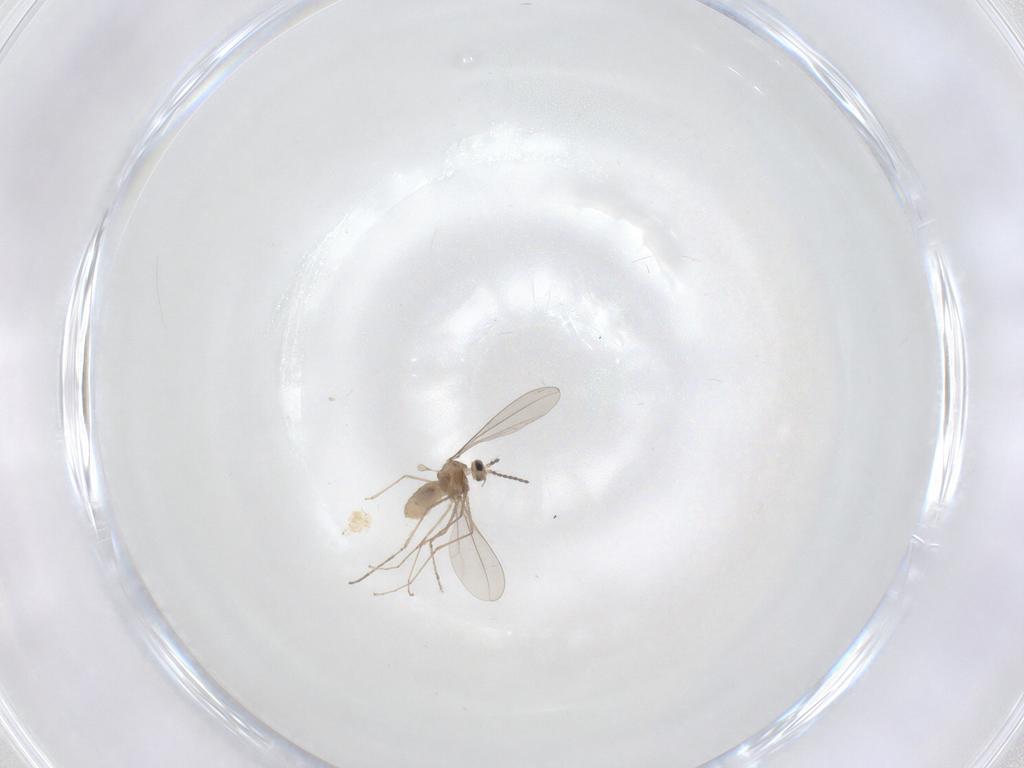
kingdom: Animalia
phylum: Arthropoda
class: Insecta
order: Diptera
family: Cecidomyiidae
